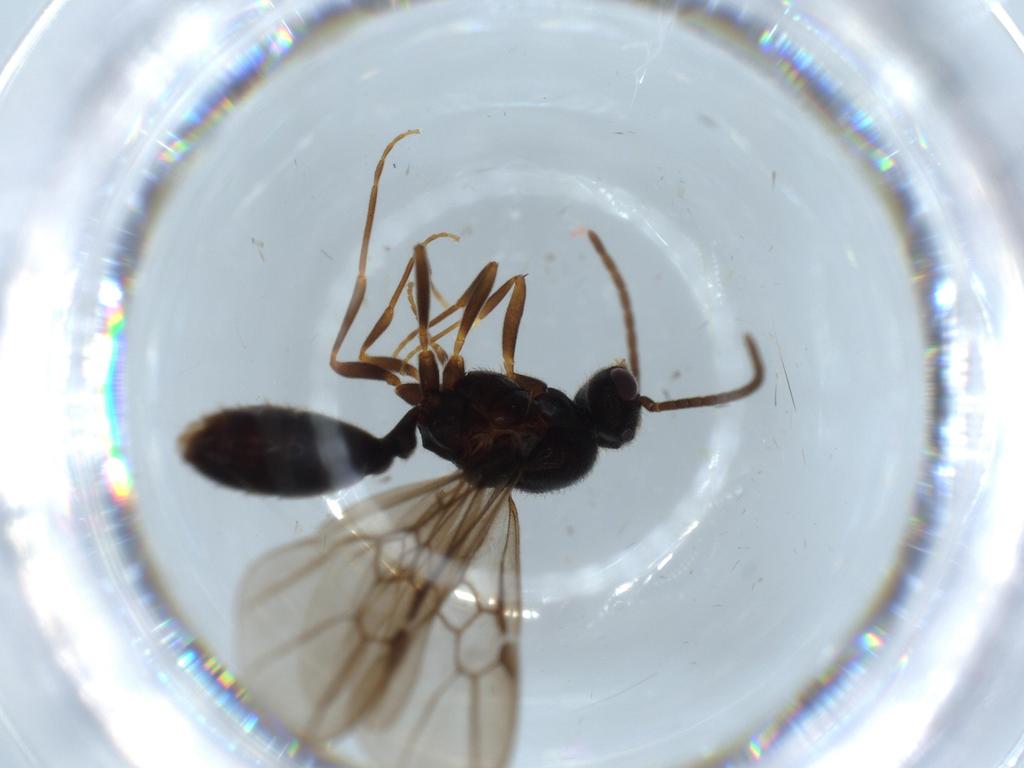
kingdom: Animalia
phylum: Arthropoda
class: Insecta
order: Hymenoptera
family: Formicidae
